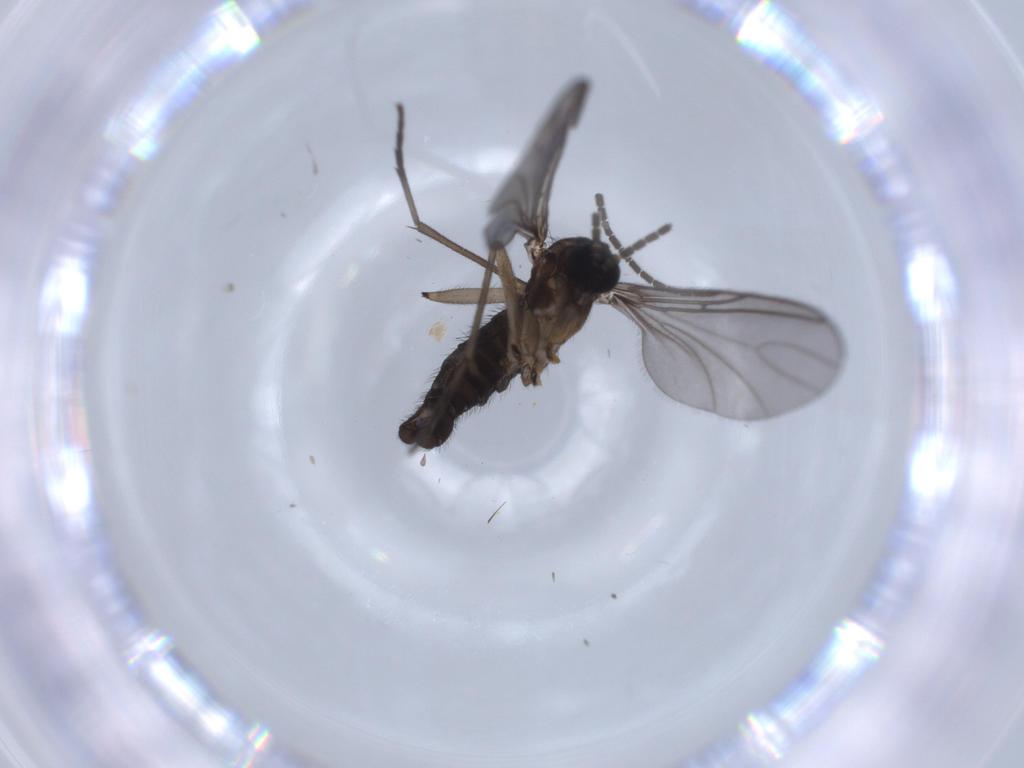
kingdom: Animalia
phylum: Arthropoda
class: Insecta
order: Diptera
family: Sciaridae
